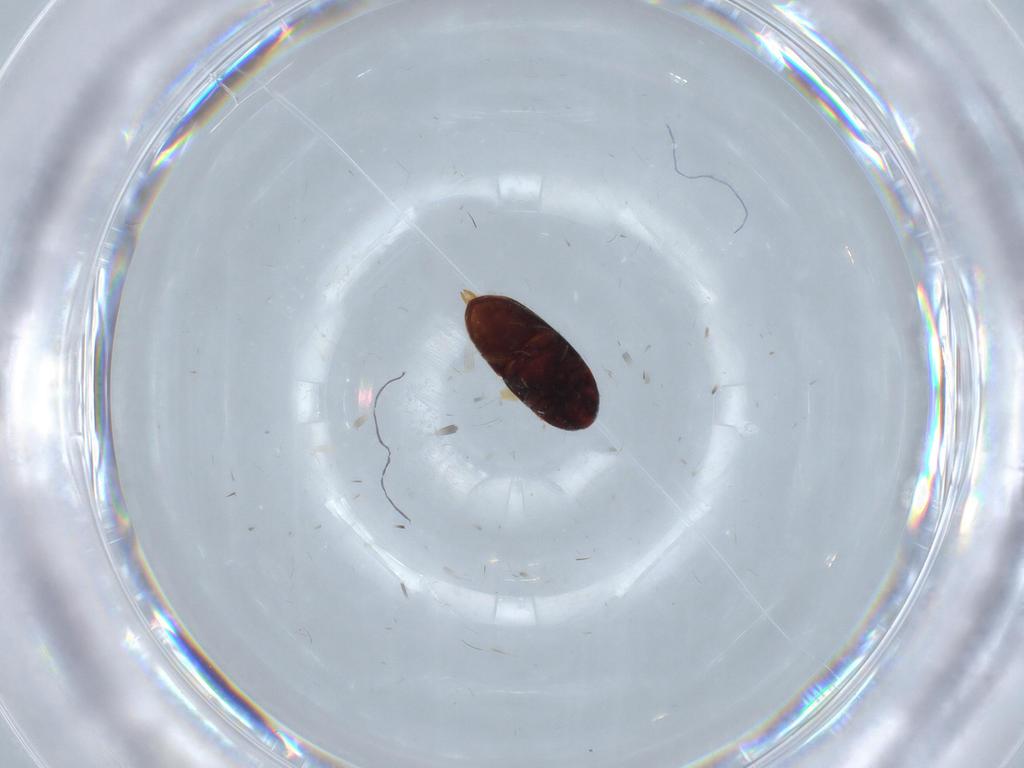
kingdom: Animalia
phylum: Arthropoda
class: Insecta
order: Coleoptera
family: Throscidae
